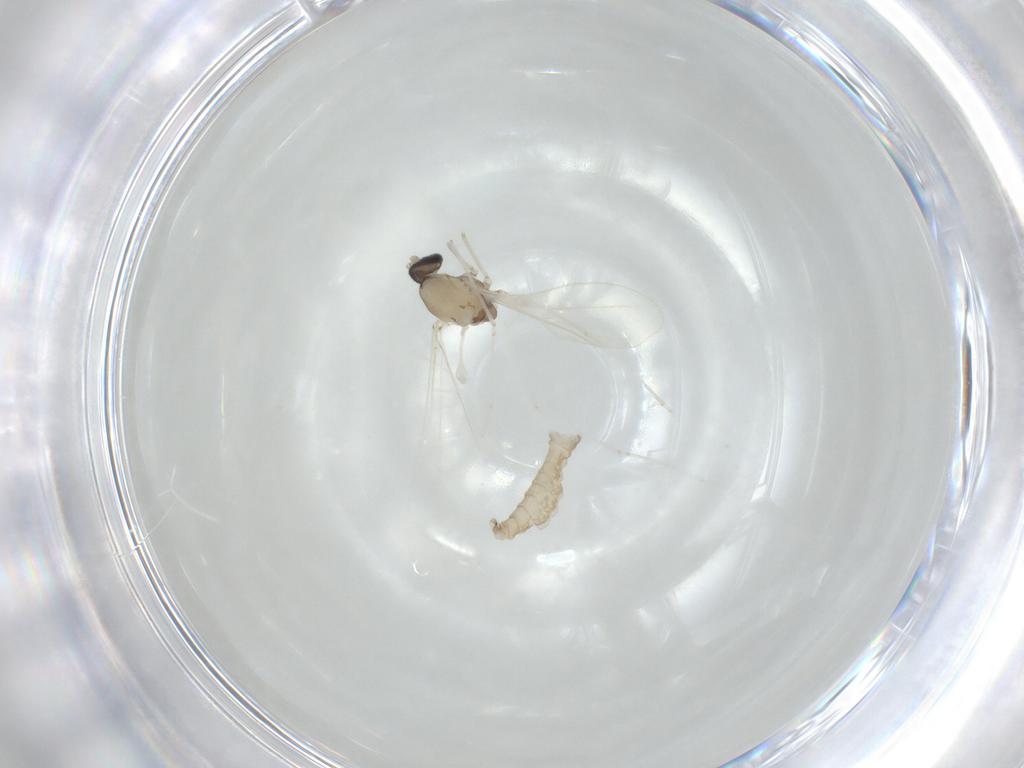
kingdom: Animalia
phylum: Arthropoda
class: Insecta
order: Diptera
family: Cecidomyiidae
